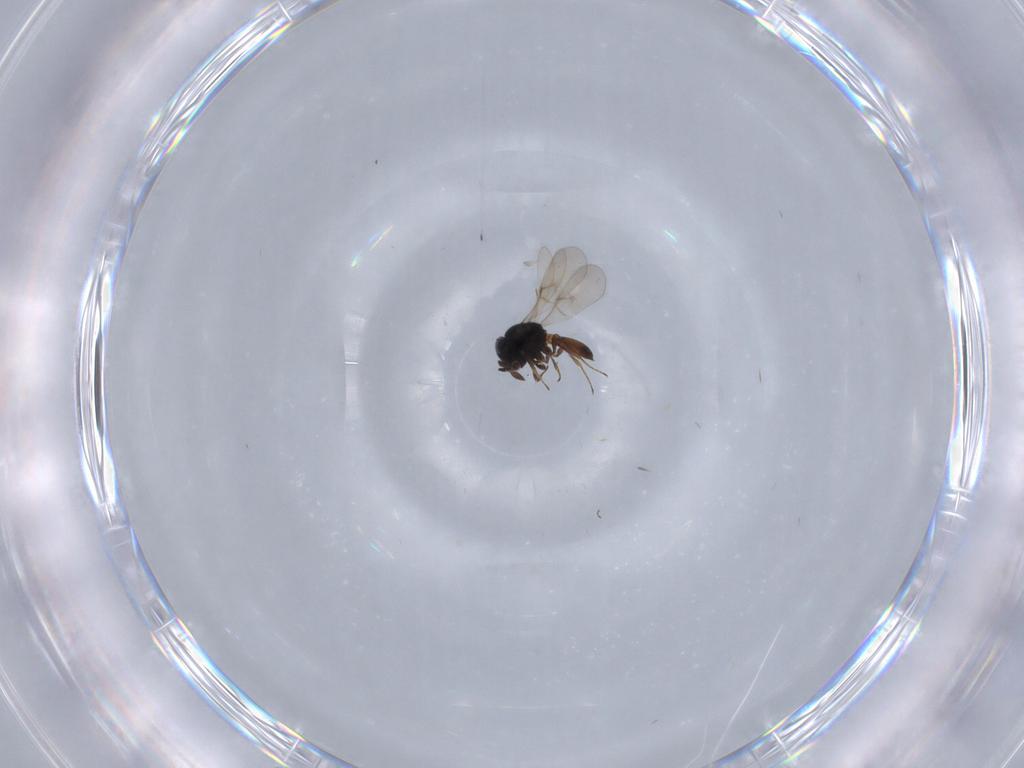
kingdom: Animalia
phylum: Arthropoda
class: Insecta
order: Hymenoptera
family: Scelionidae
